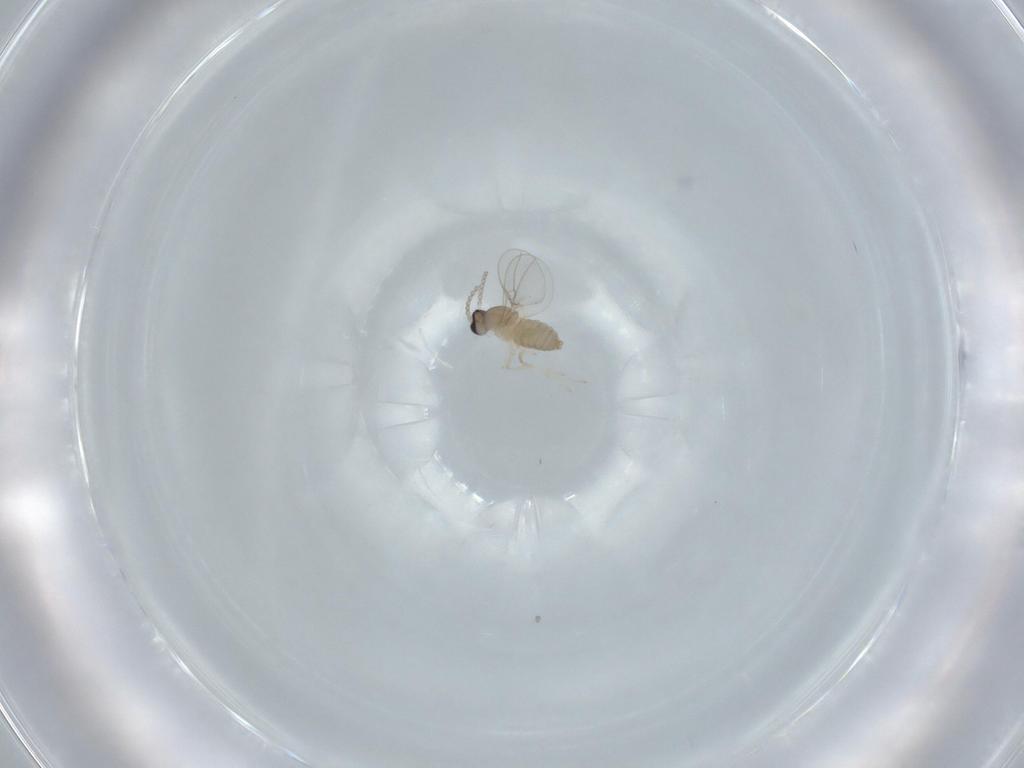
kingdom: Animalia
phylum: Arthropoda
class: Insecta
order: Diptera
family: Cecidomyiidae
